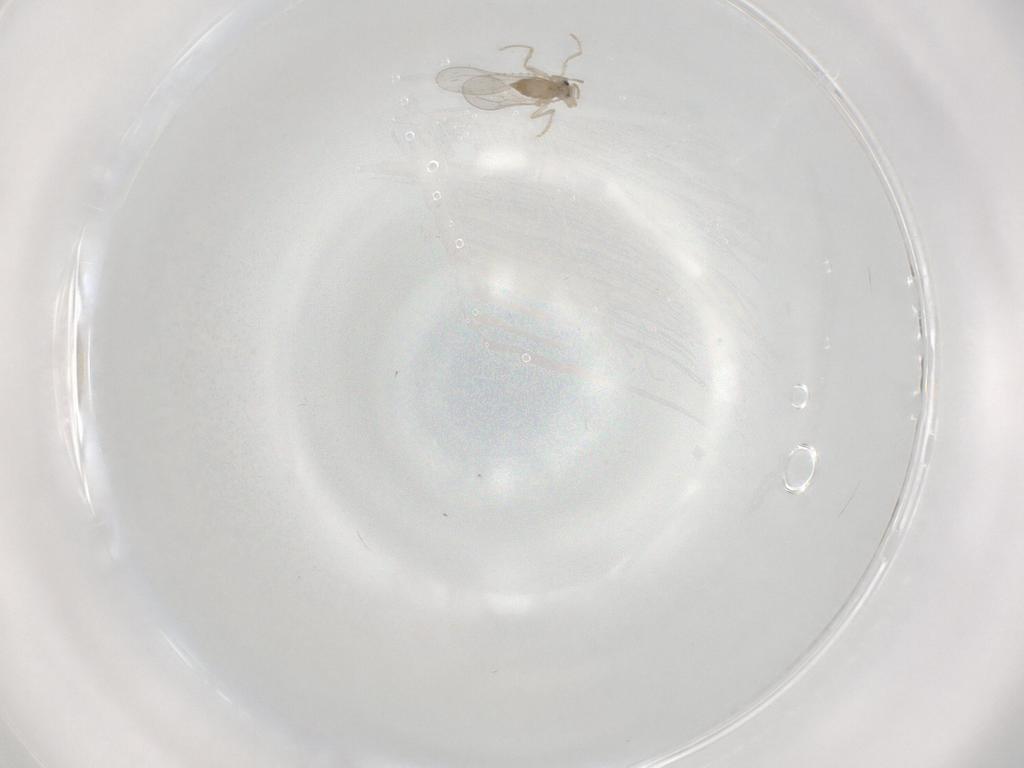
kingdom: Animalia
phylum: Arthropoda
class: Insecta
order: Diptera
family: Cecidomyiidae
